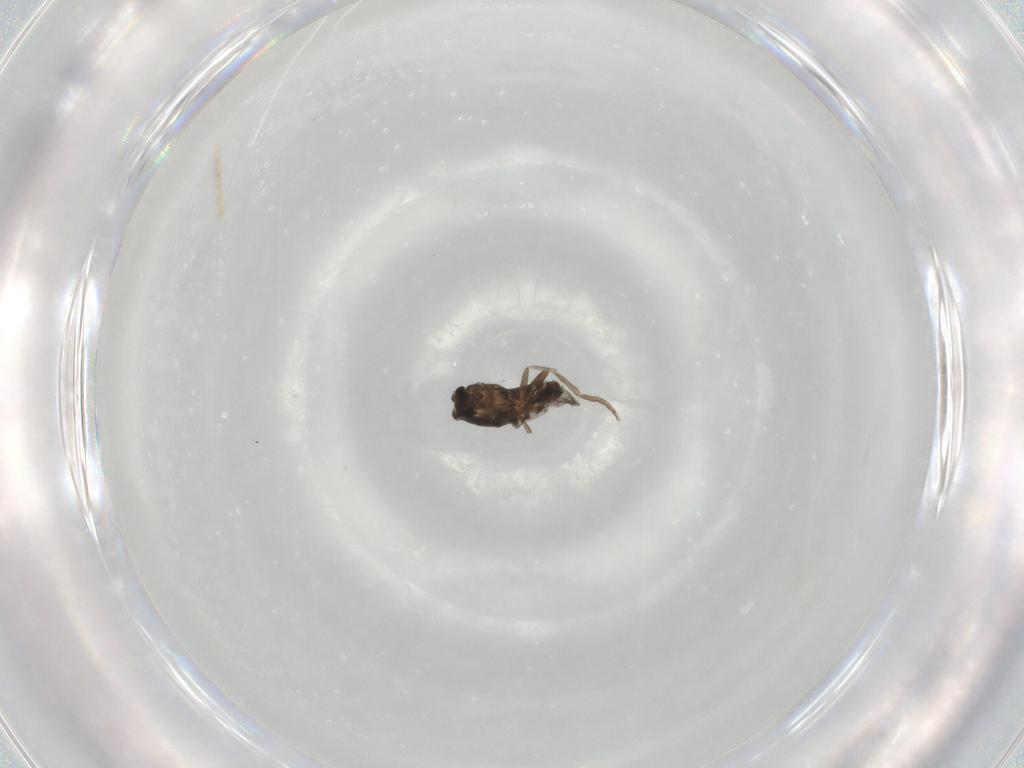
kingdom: Animalia
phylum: Arthropoda
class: Insecta
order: Diptera
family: Sciaridae
